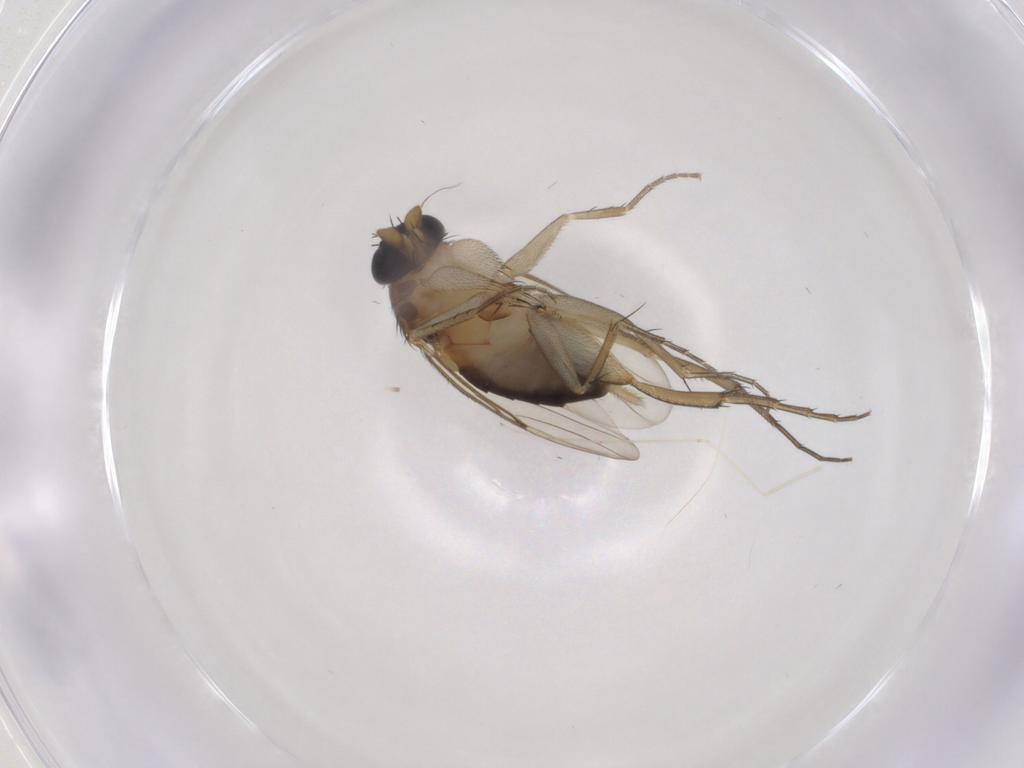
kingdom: Animalia
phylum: Arthropoda
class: Insecta
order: Diptera
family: Phoridae
